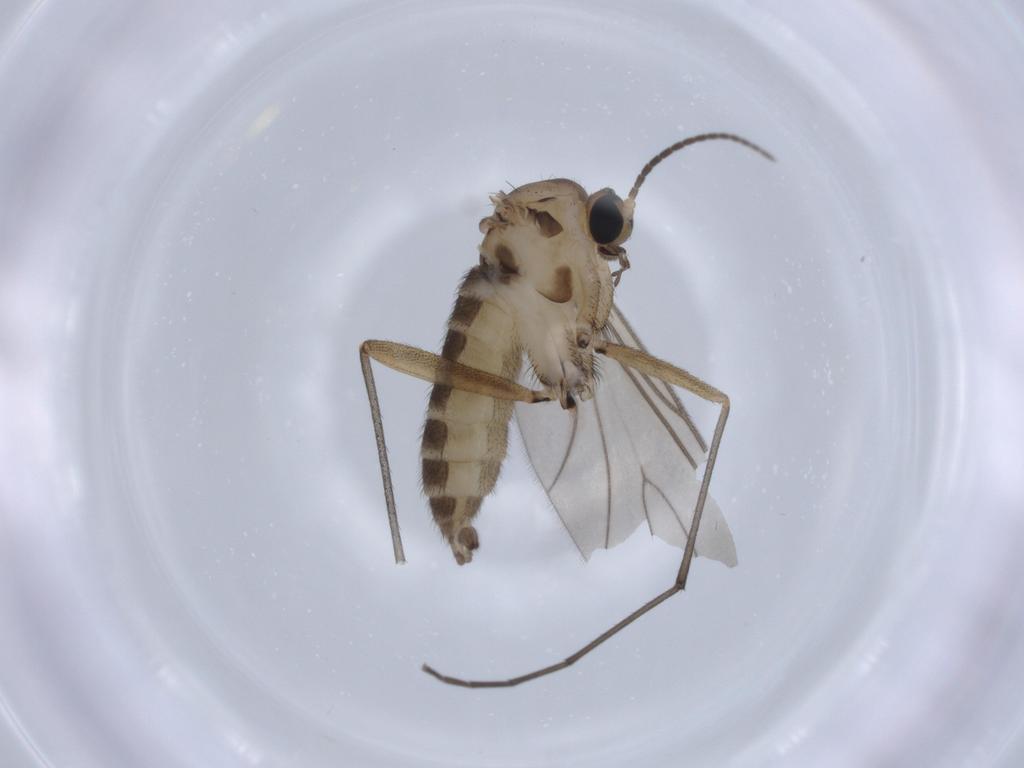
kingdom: Animalia
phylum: Arthropoda
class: Insecta
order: Diptera
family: Sciaridae
